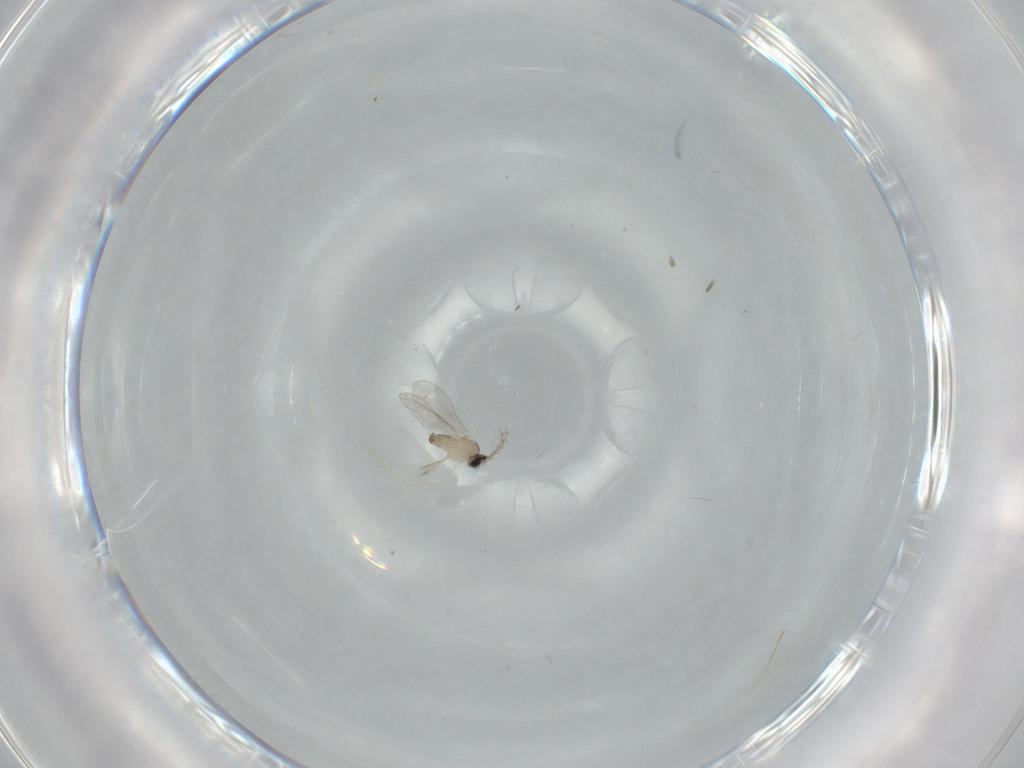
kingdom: Animalia
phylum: Arthropoda
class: Insecta
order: Diptera
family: Ceratopogonidae
